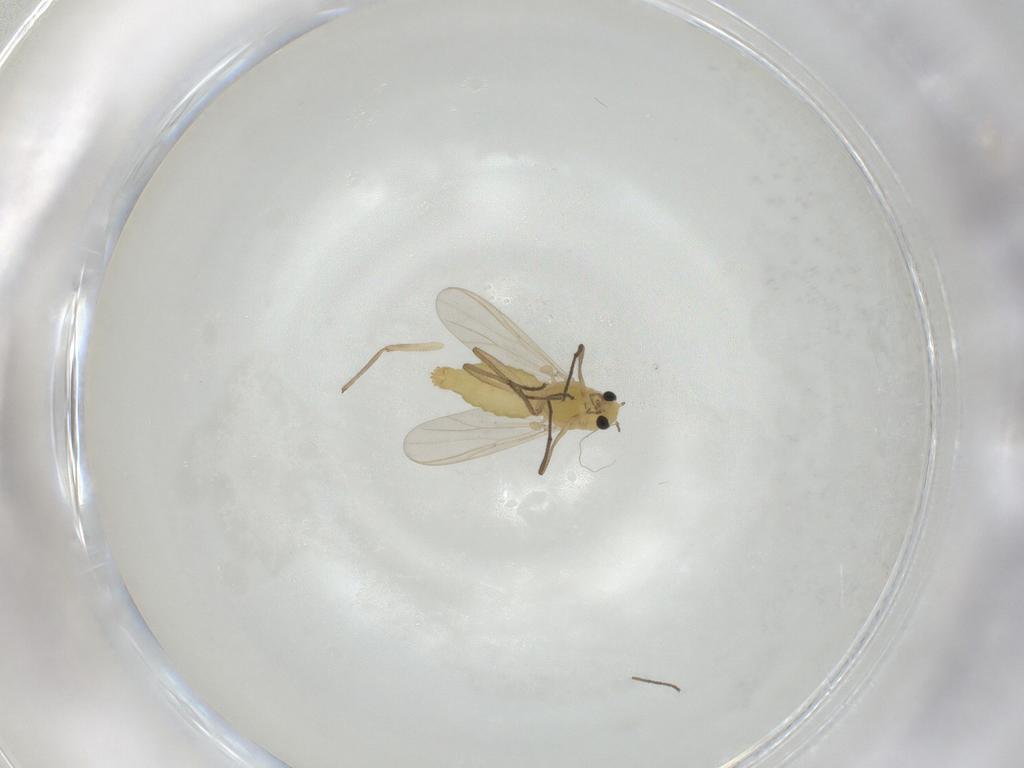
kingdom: Animalia
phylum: Arthropoda
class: Insecta
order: Diptera
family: Chironomidae
